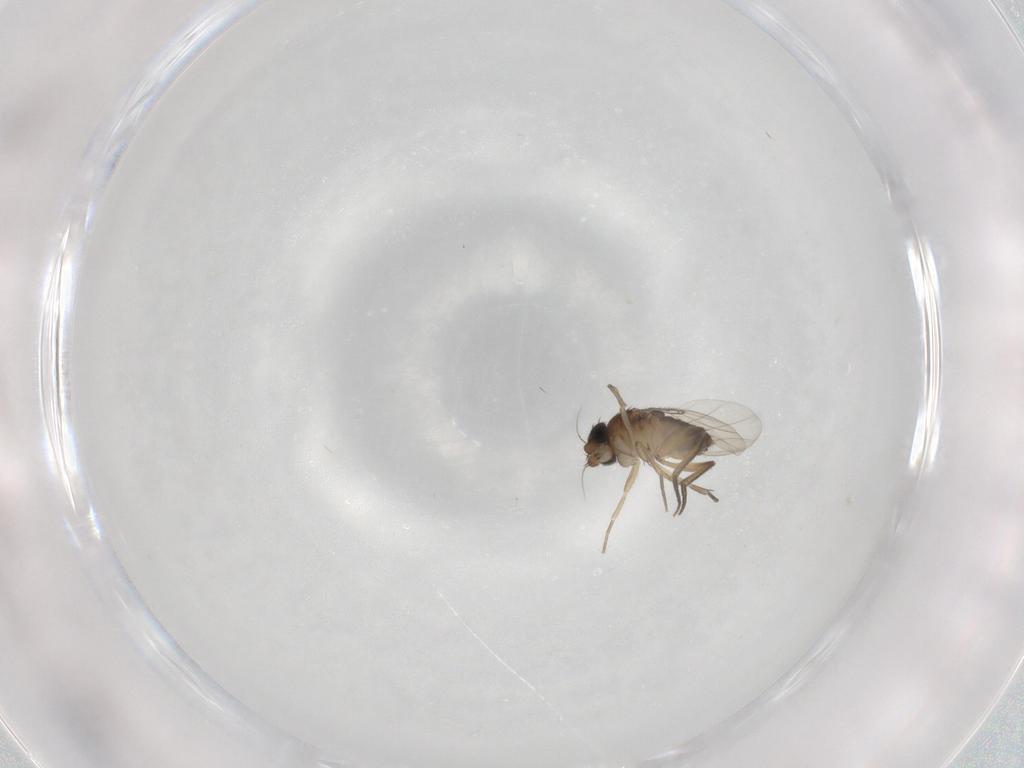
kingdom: Animalia
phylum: Arthropoda
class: Insecta
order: Diptera
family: Phoridae
